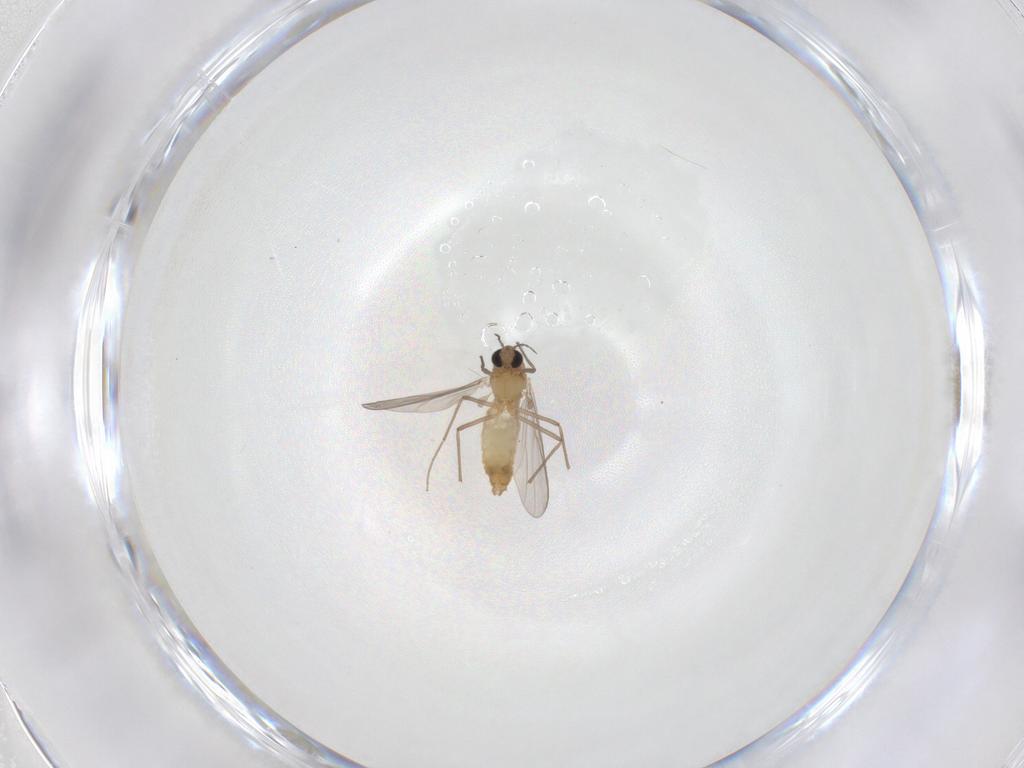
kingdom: Animalia
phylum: Arthropoda
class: Insecta
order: Diptera
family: Chironomidae
